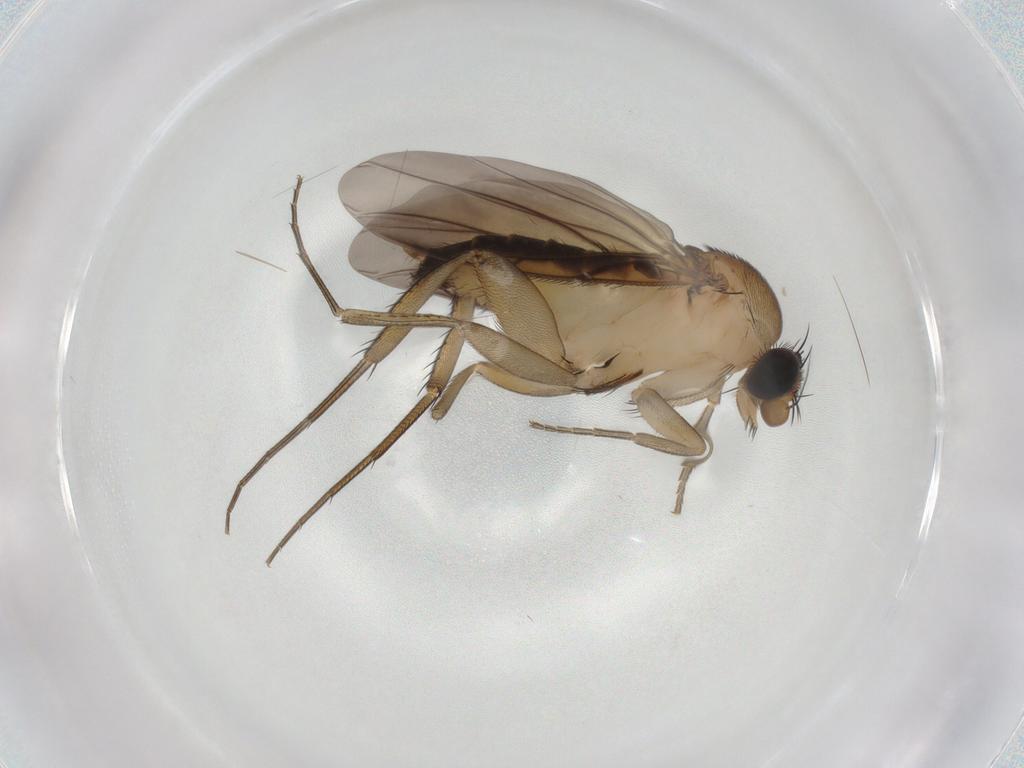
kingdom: Animalia
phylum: Arthropoda
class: Insecta
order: Diptera
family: Phoridae
